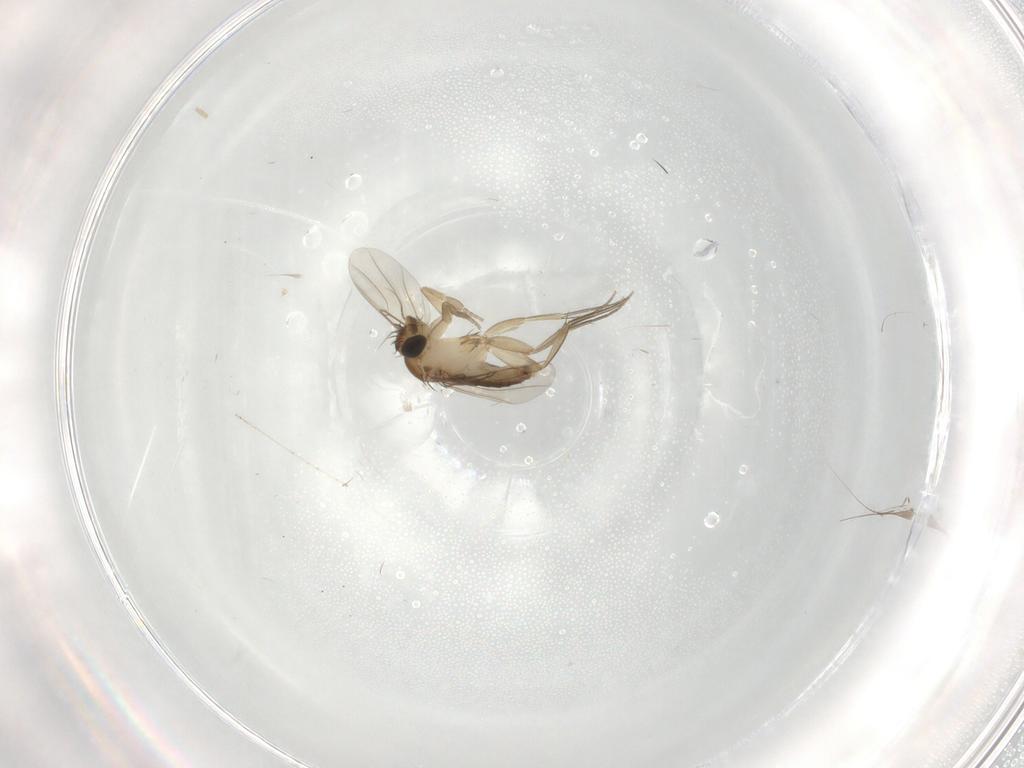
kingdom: Animalia
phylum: Arthropoda
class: Insecta
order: Diptera
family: Phoridae
